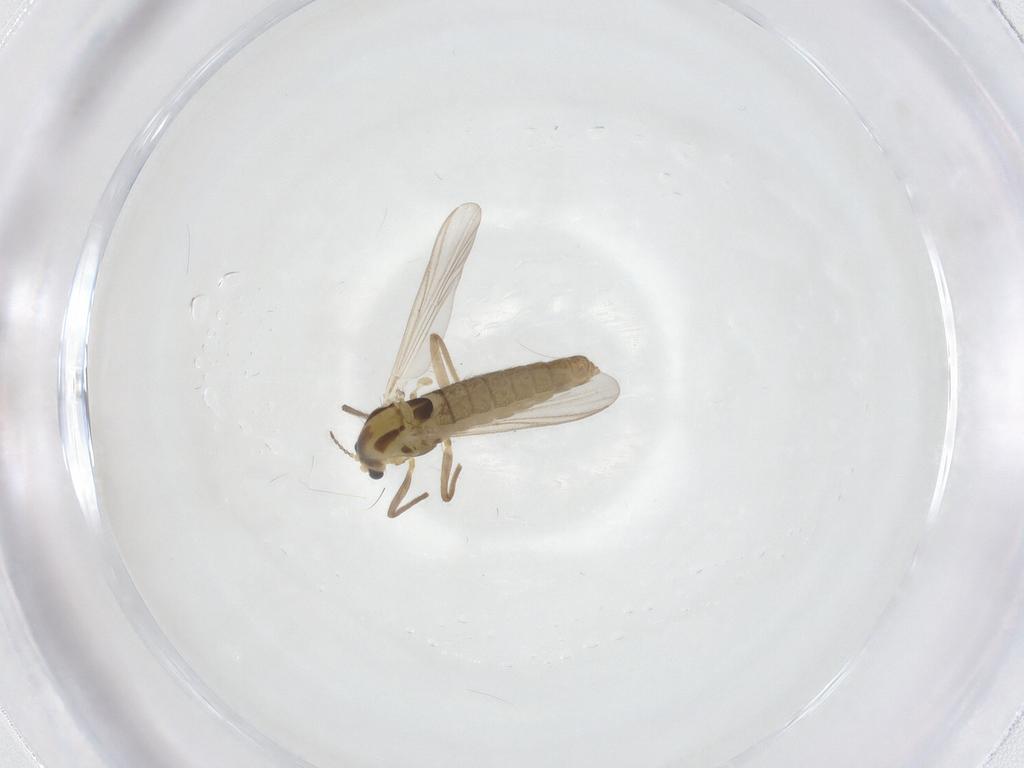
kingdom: Animalia
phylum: Arthropoda
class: Insecta
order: Diptera
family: Chironomidae
